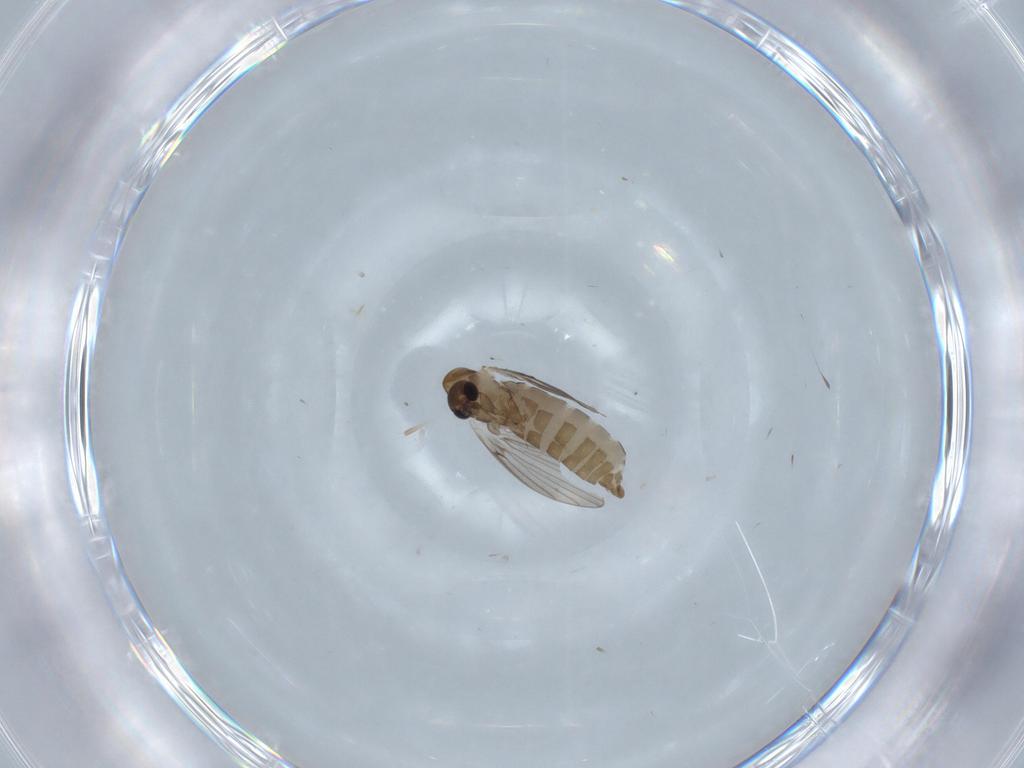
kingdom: Animalia
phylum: Arthropoda
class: Insecta
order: Diptera
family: Psychodidae
